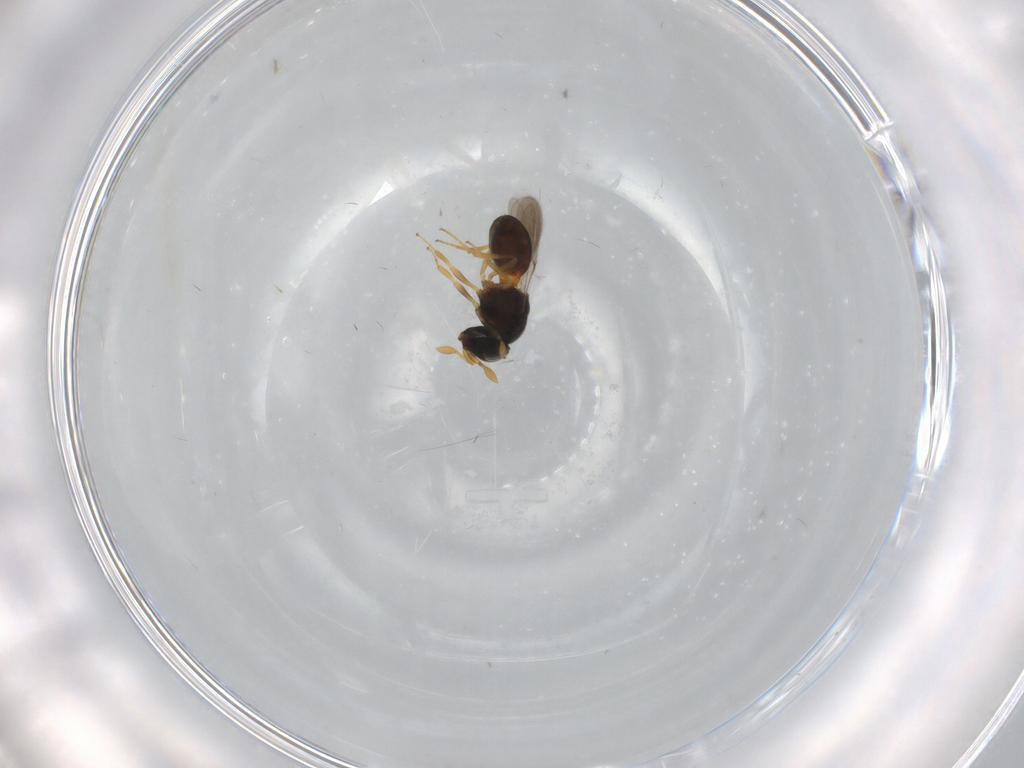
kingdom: Animalia
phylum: Arthropoda
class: Insecta
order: Hymenoptera
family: Scelionidae
